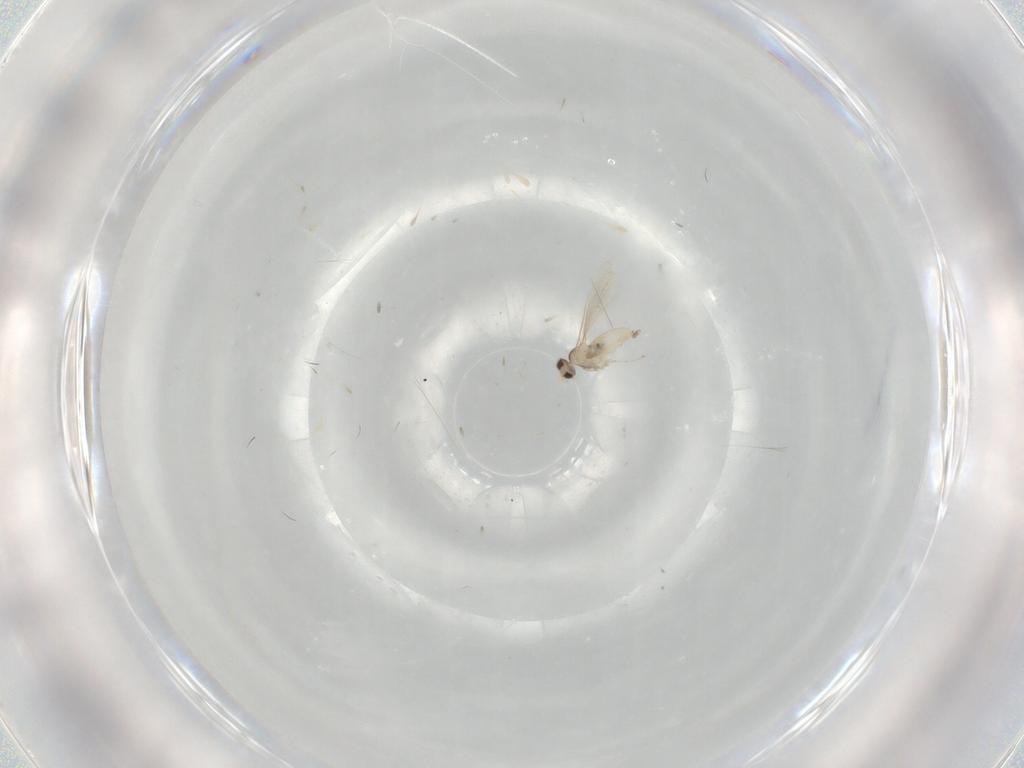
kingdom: Animalia
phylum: Arthropoda
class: Insecta
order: Diptera
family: Cecidomyiidae
